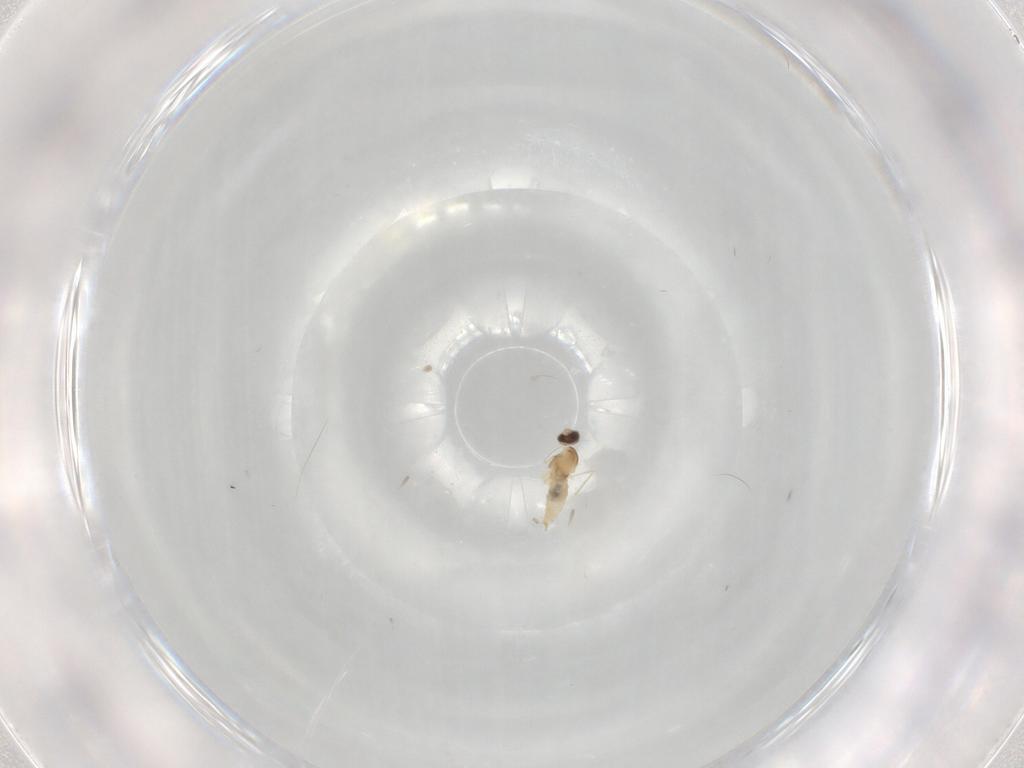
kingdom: Animalia
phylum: Arthropoda
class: Insecta
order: Diptera
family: Cecidomyiidae
